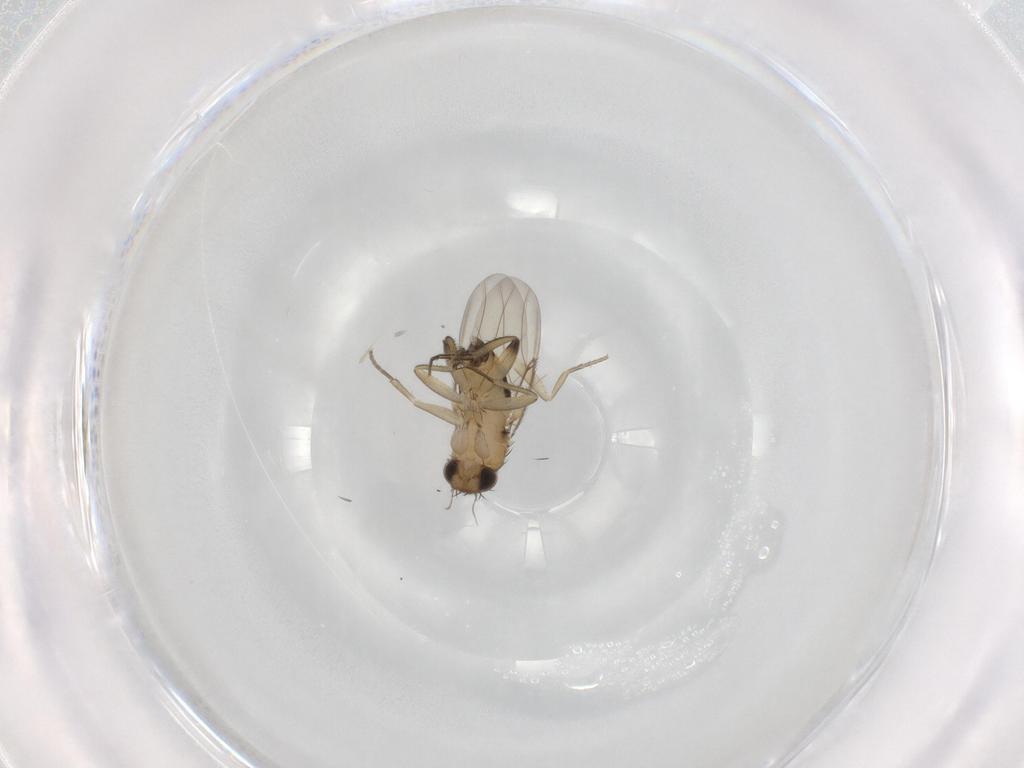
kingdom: Animalia
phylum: Arthropoda
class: Insecta
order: Diptera
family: Phoridae
